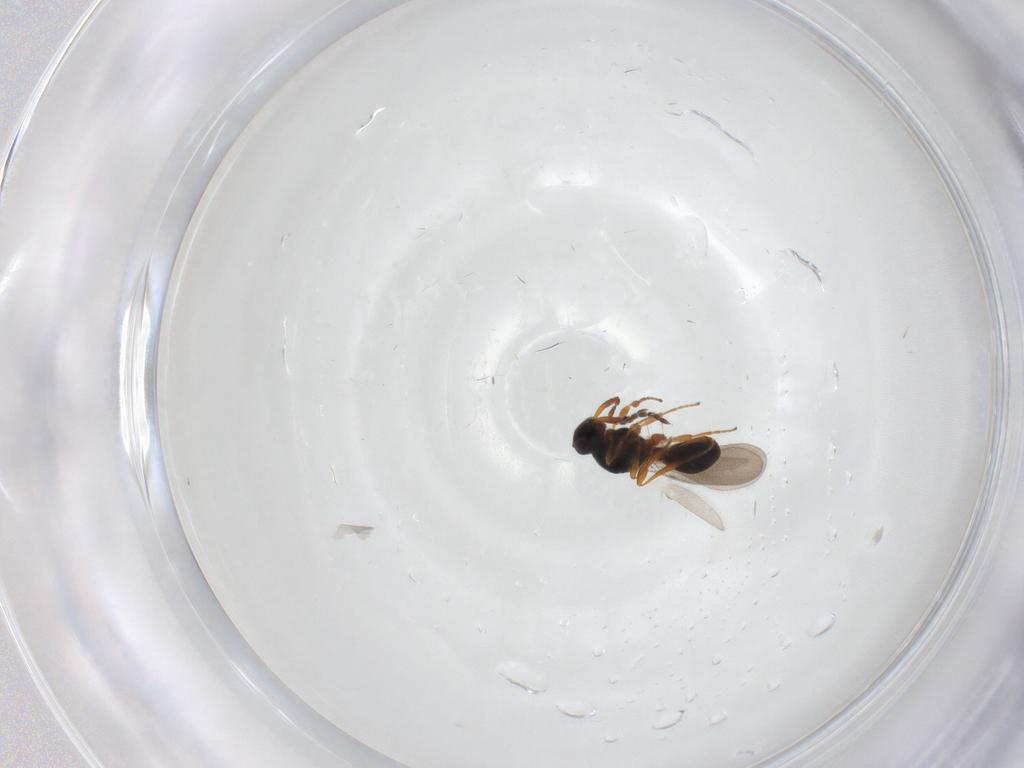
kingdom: Animalia
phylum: Arthropoda
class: Insecta
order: Hymenoptera
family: Platygastridae
